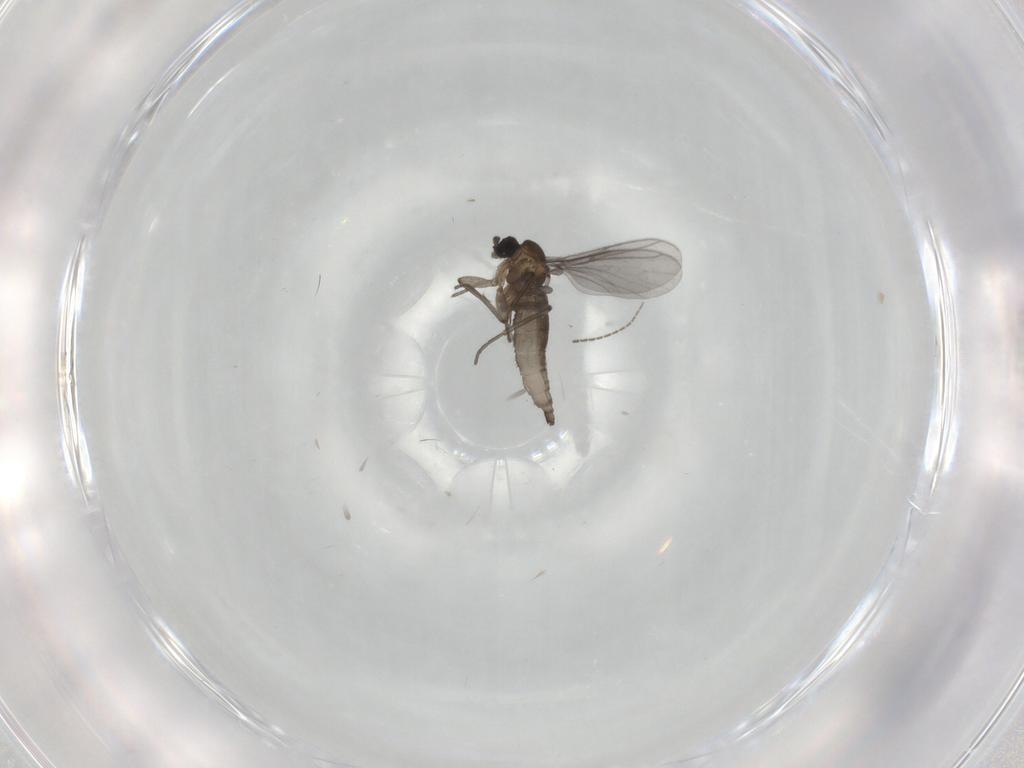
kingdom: Animalia
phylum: Arthropoda
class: Insecta
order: Diptera
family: Sciaridae
